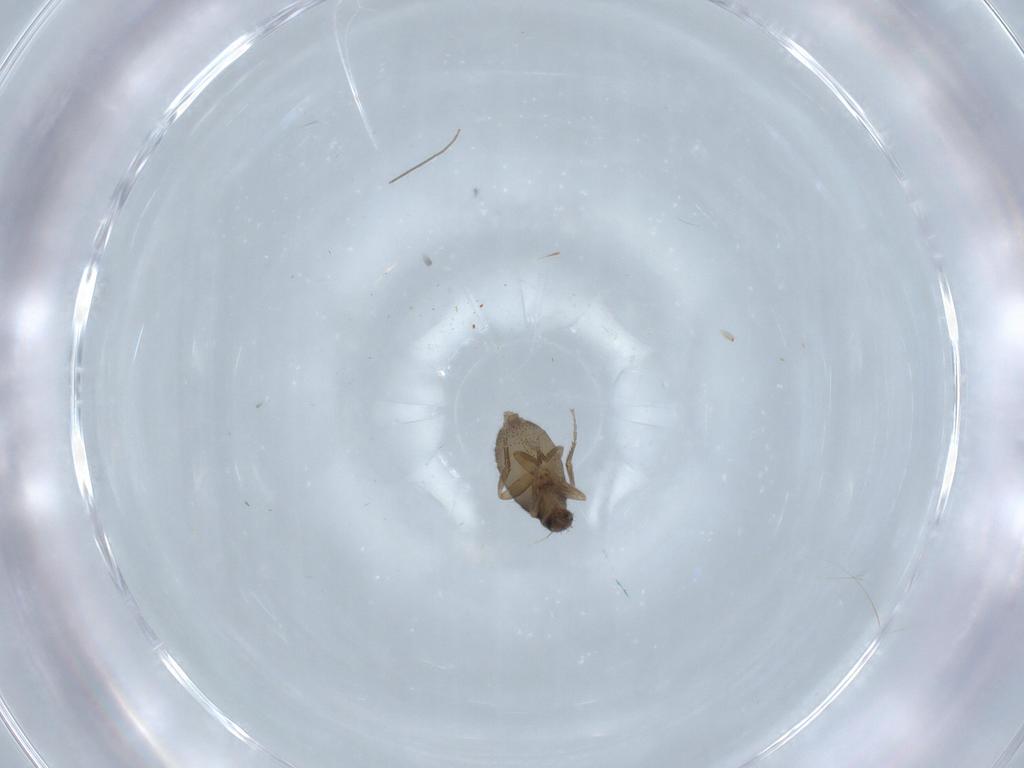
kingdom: Animalia
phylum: Arthropoda
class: Insecta
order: Diptera
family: Phoridae
